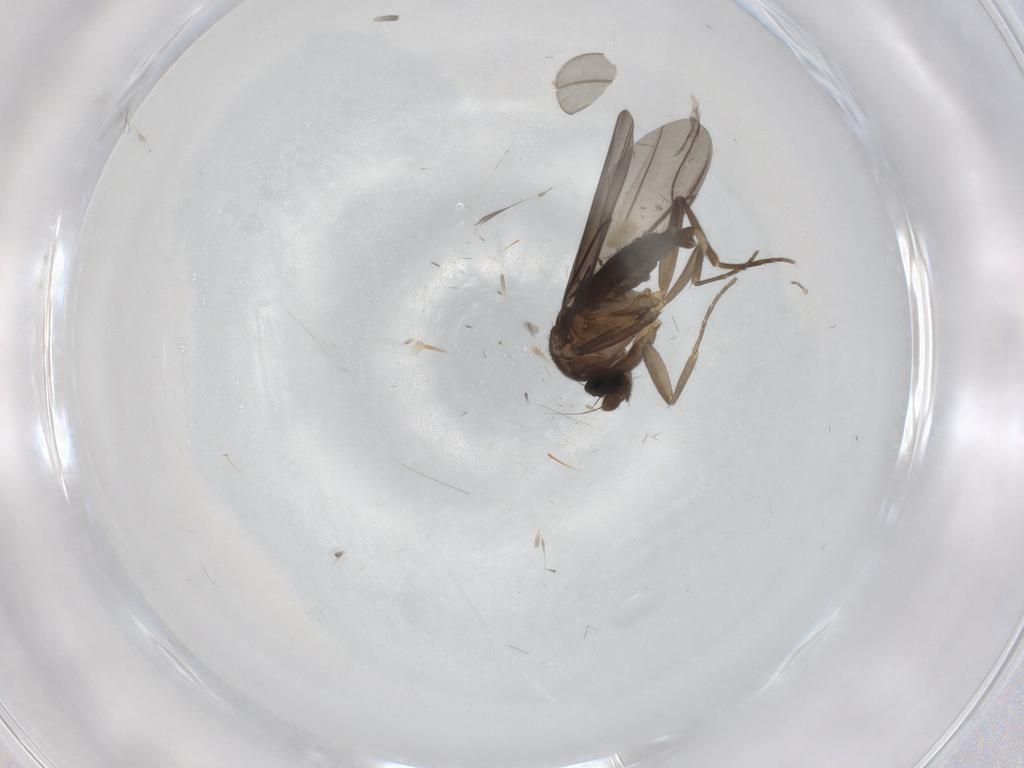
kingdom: Animalia
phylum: Arthropoda
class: Insecta
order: Diptera
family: Phoridae
